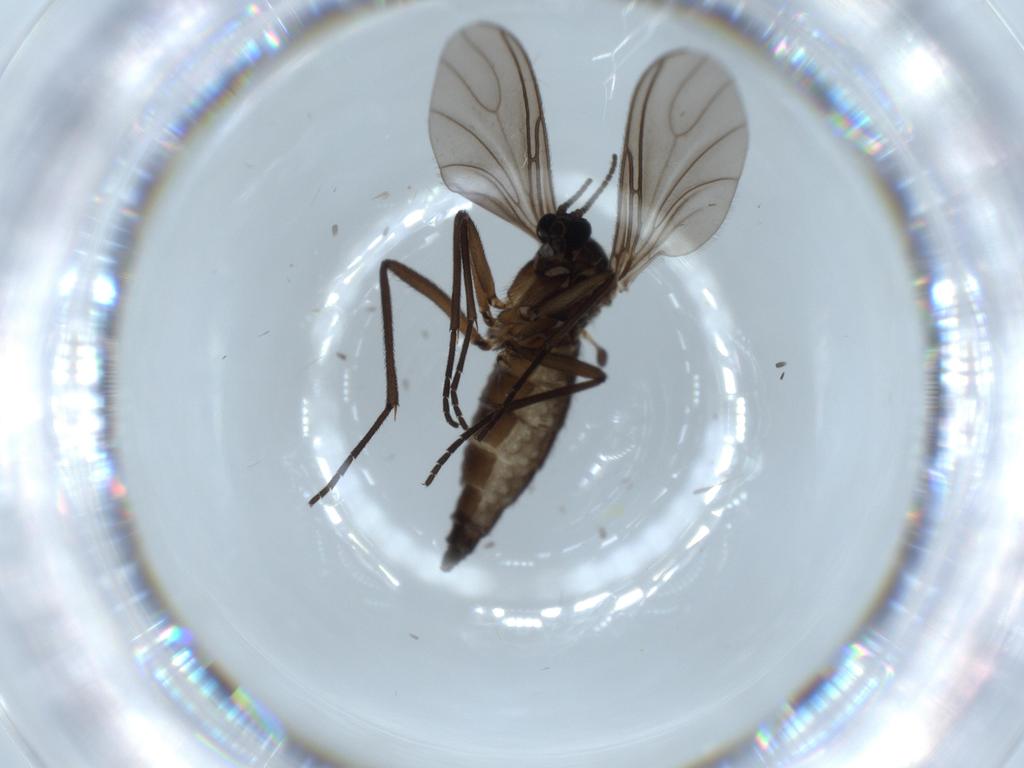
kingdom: Animalia
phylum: Arthropoda
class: Insecta
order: Diptera
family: Sciaridae
